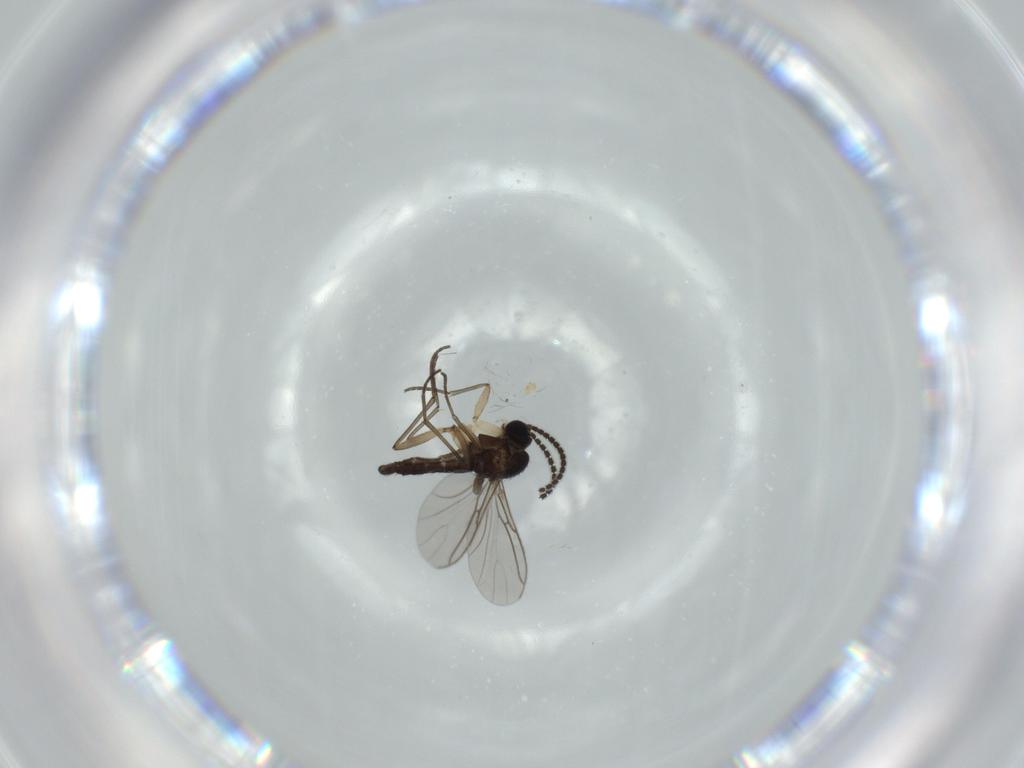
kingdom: Animalia
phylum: Arthropoda
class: Insecta
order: Diptera
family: Sciaridae
